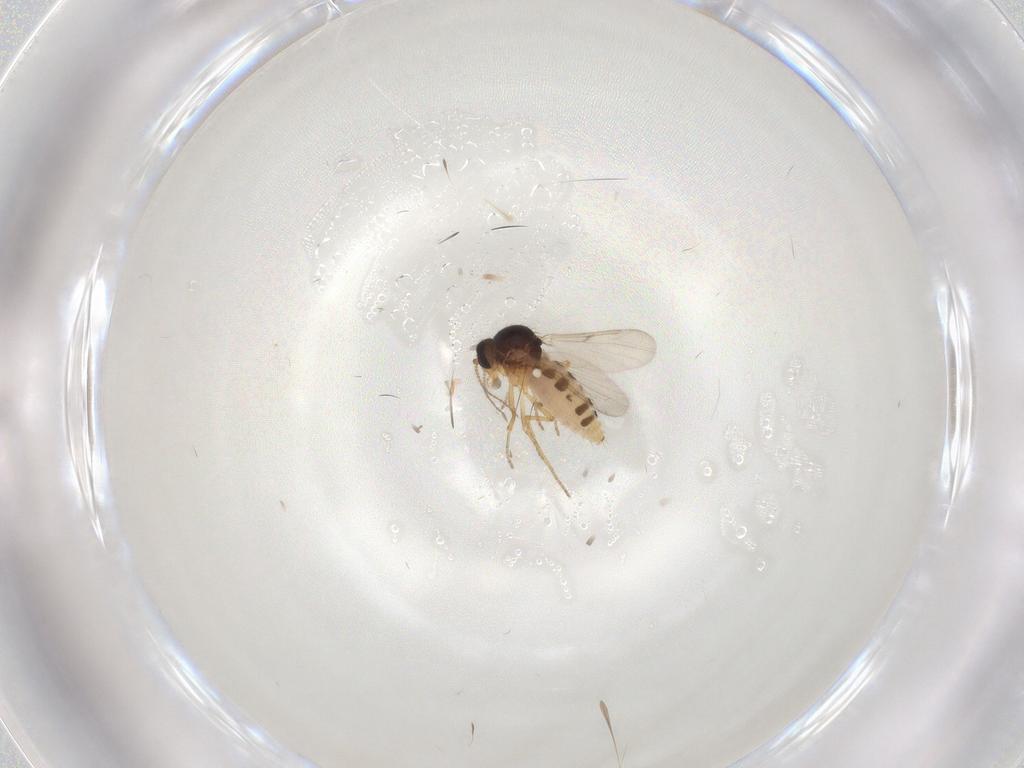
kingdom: Animalia
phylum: Arthropoda
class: Insecta
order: Diptera
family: Ceratopogonidae
